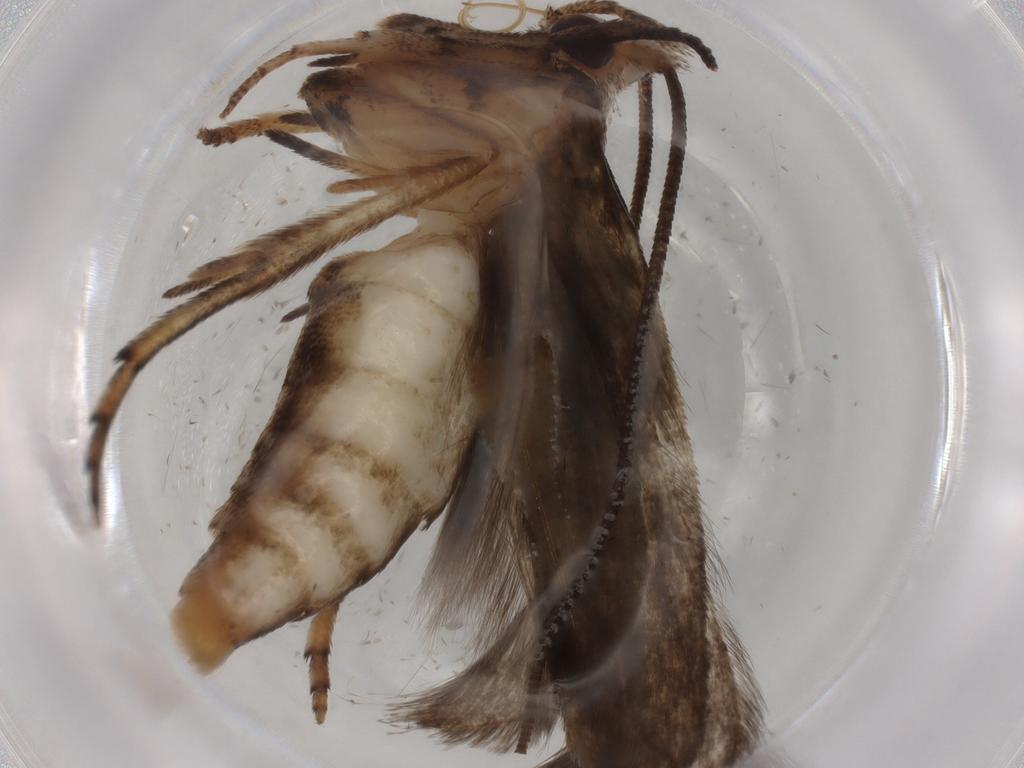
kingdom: Animalia
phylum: Arthropoda
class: Insecta
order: Lepidoptera
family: Yponomeutidae
